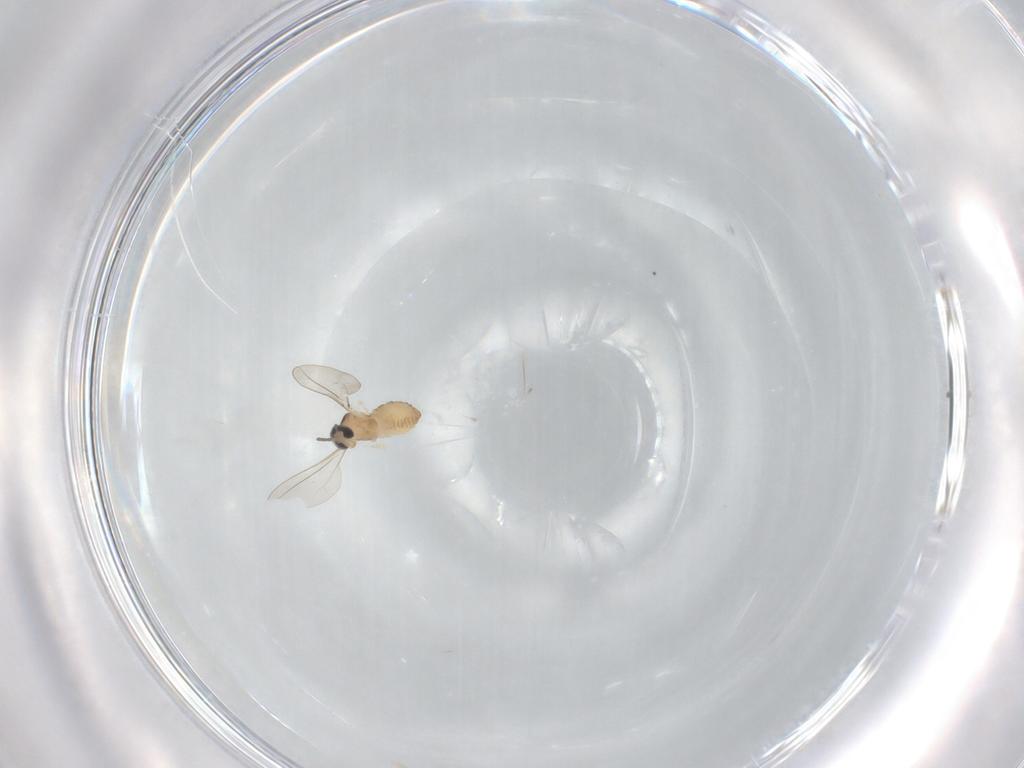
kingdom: Animalia
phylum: Arthropoda
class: Insecta
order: Diptera
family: Cecidomyiidae
